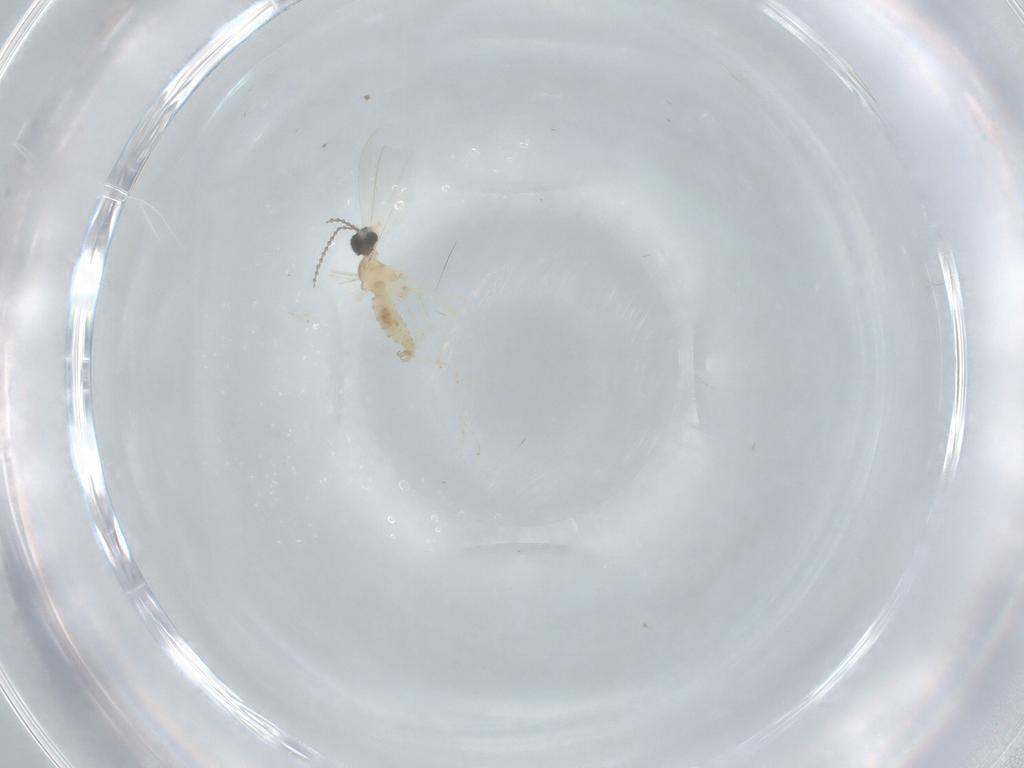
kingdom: Animalia
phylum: Arthropoda
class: Insecta
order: Diptera
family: Cecidomyiidae
